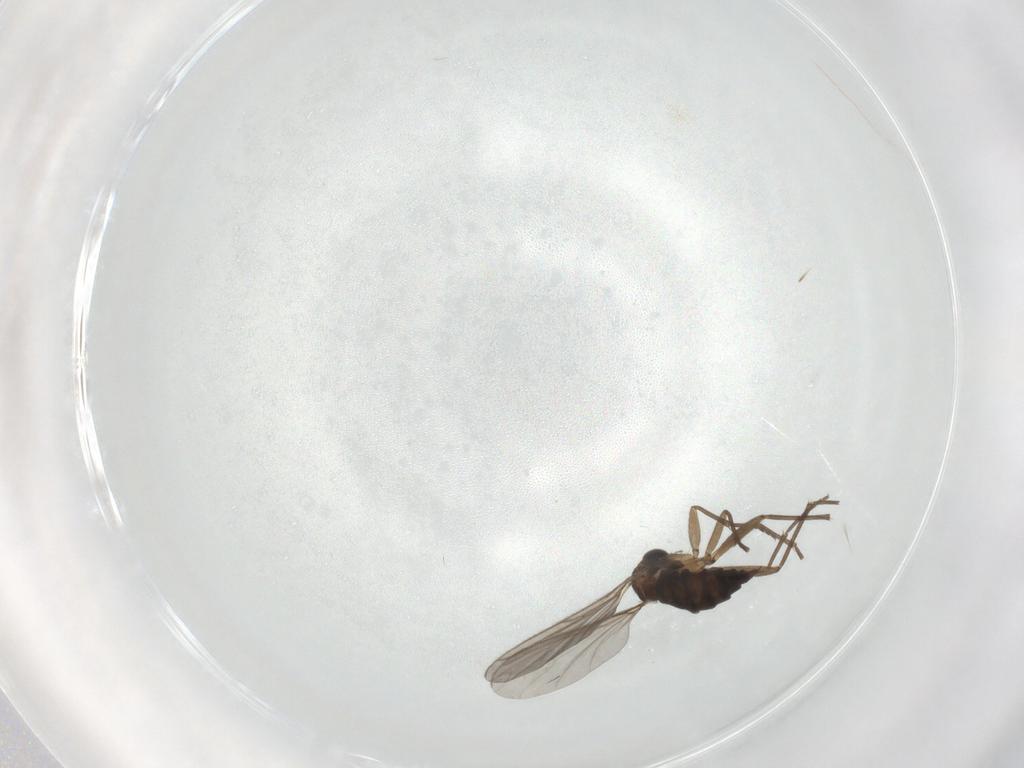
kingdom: Animalia
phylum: Arthropoda
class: Insecta
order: Diptera
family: Sciaridae
